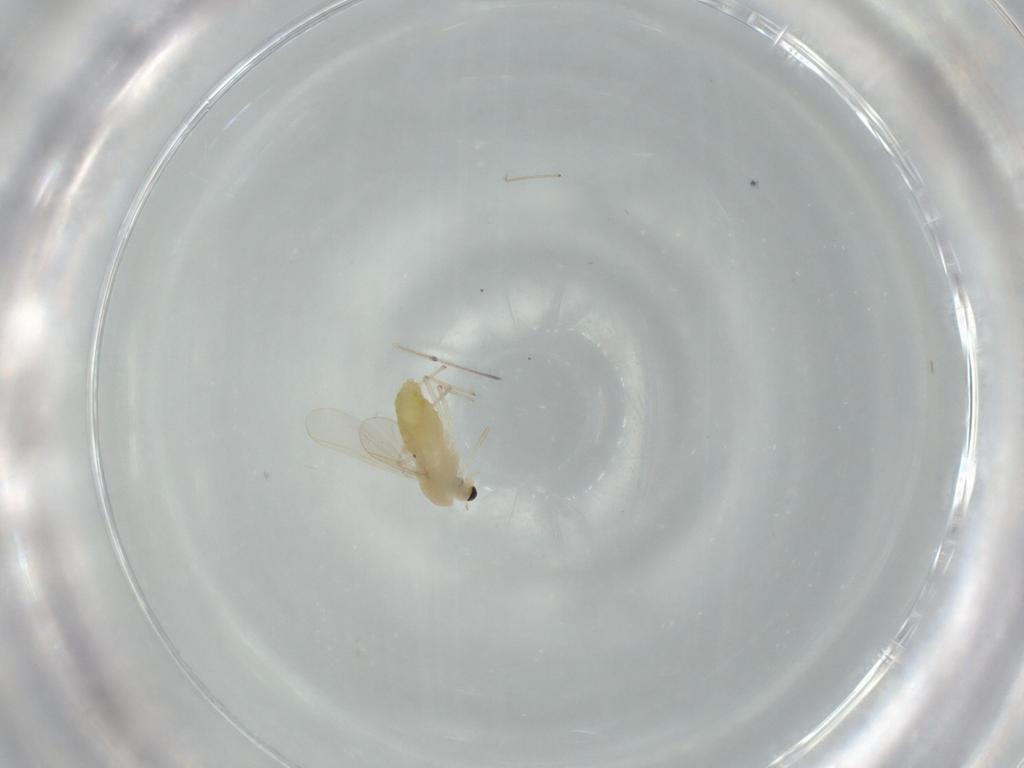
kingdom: Animalia
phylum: Arthropoda
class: Insecta
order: Diptera
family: Chironomidae
